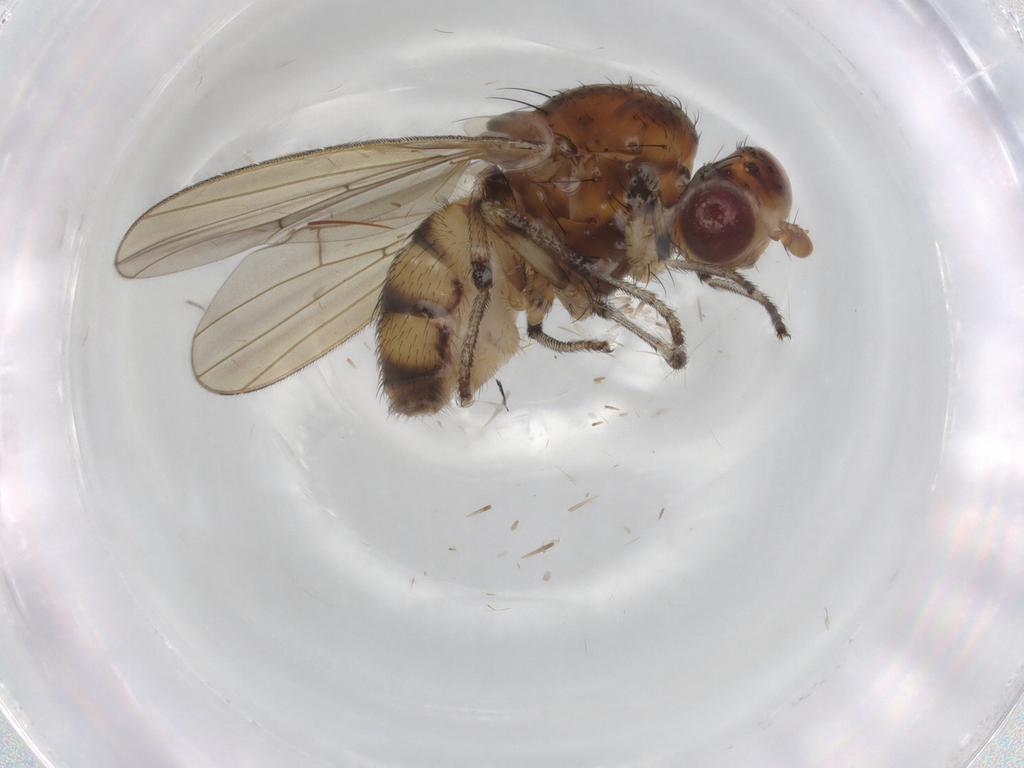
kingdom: Animalia
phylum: Arthropoda
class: Insecta
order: Diptera
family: Lauxaniidae
